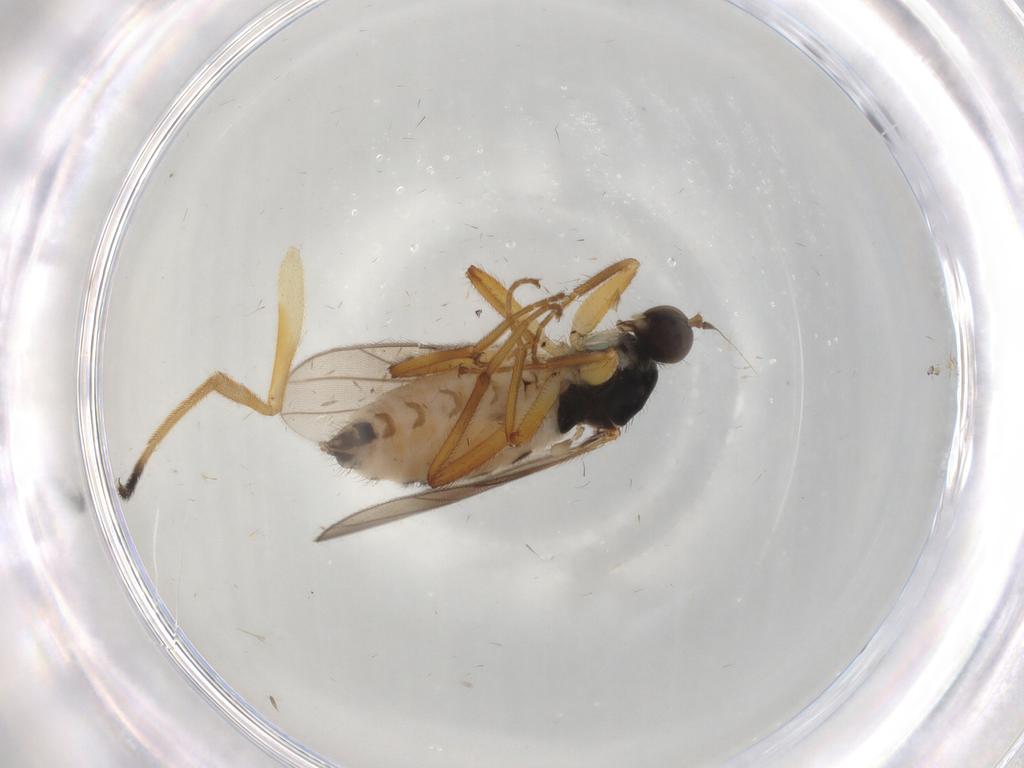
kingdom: Animalia
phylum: Arthropoda
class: Insecta
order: Diptera
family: Hybotidae
